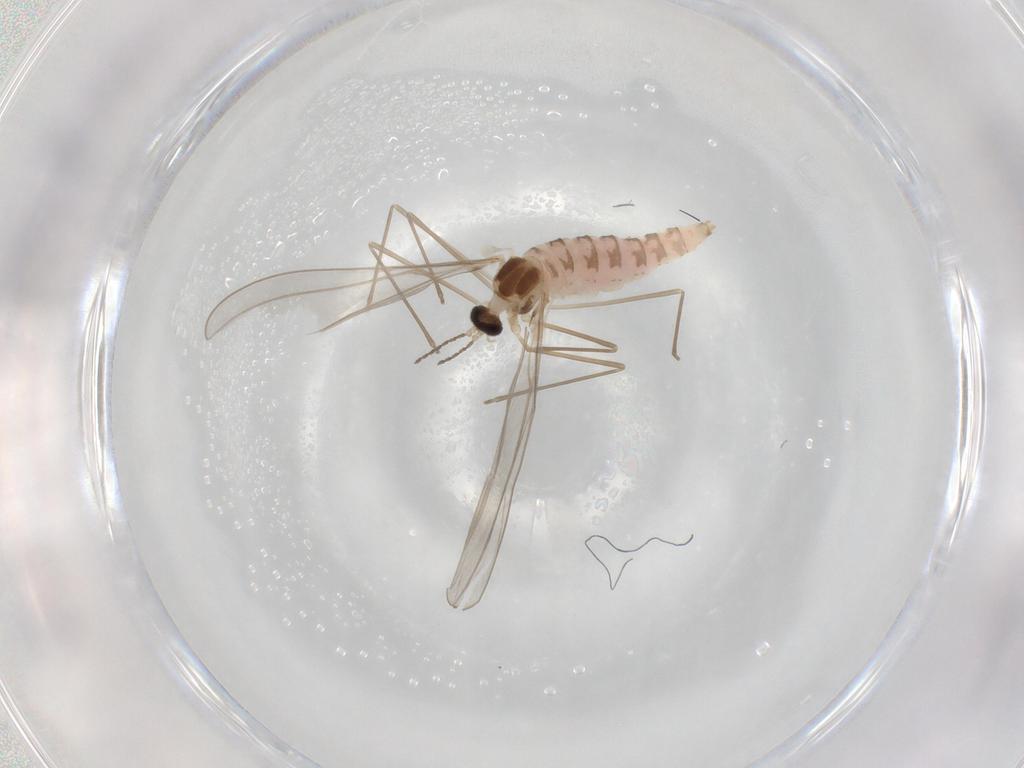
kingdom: Animalia
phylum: Arthropoda
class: Insecta
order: Diptera
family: Cecidomyiidae
